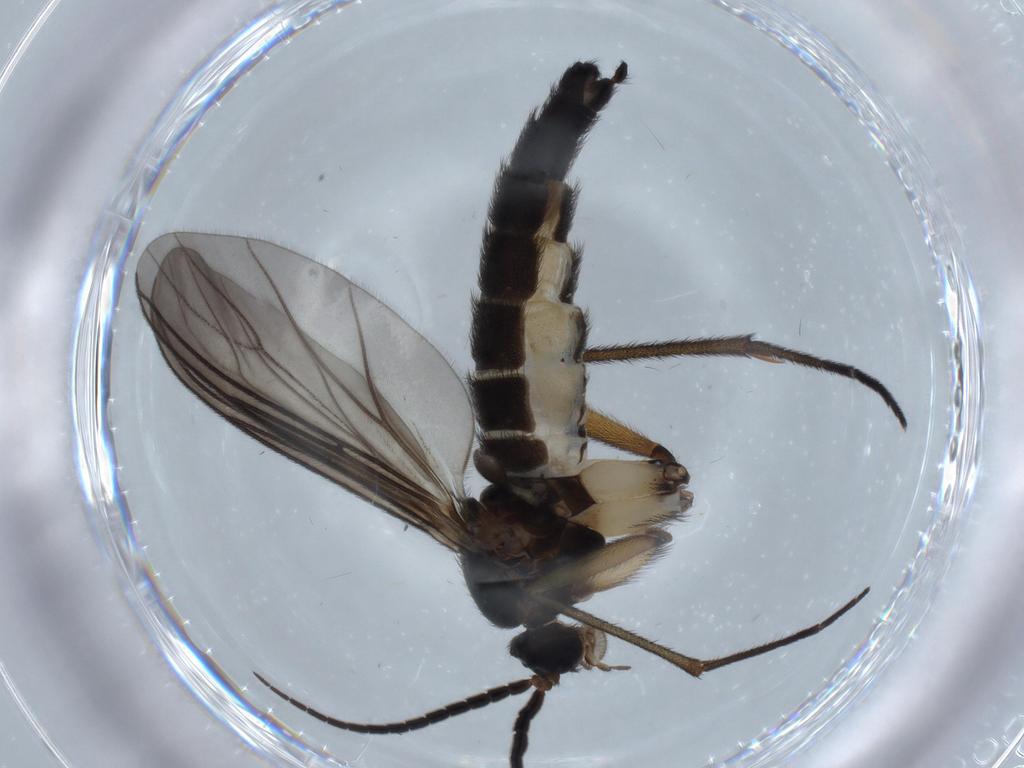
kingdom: Animalia
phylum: Arthropoda
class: Insecta
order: Diptera
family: Sciaridae
